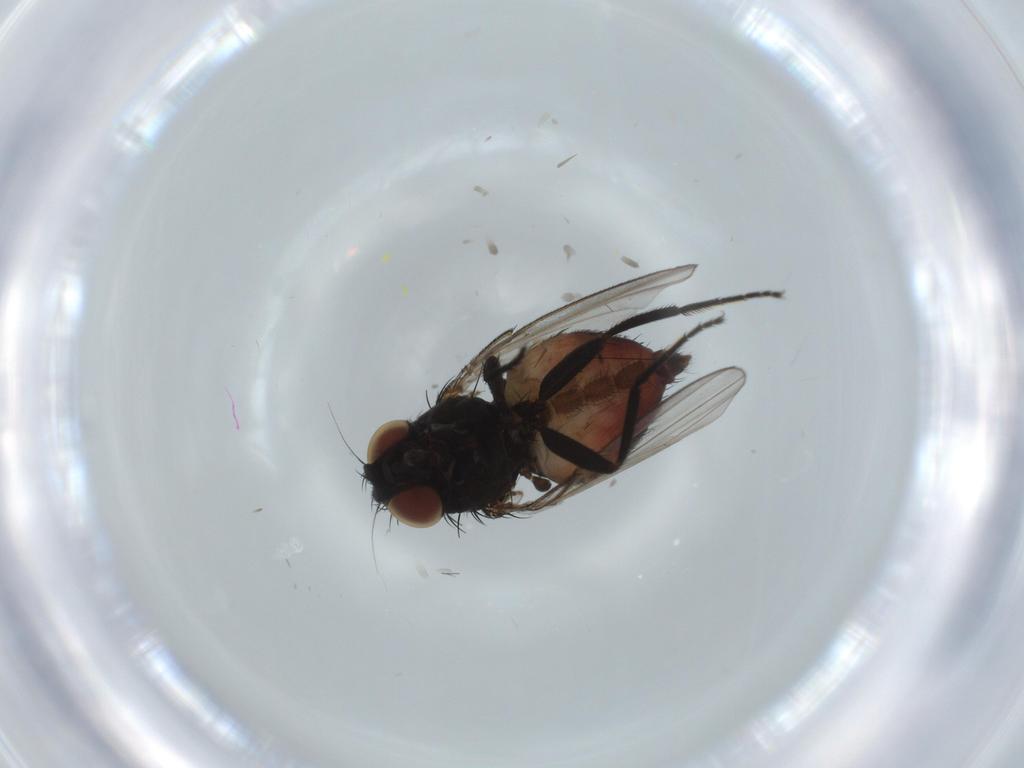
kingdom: Animalia
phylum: Arthropoda
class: Insecta
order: Diptera
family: Milichiidae
